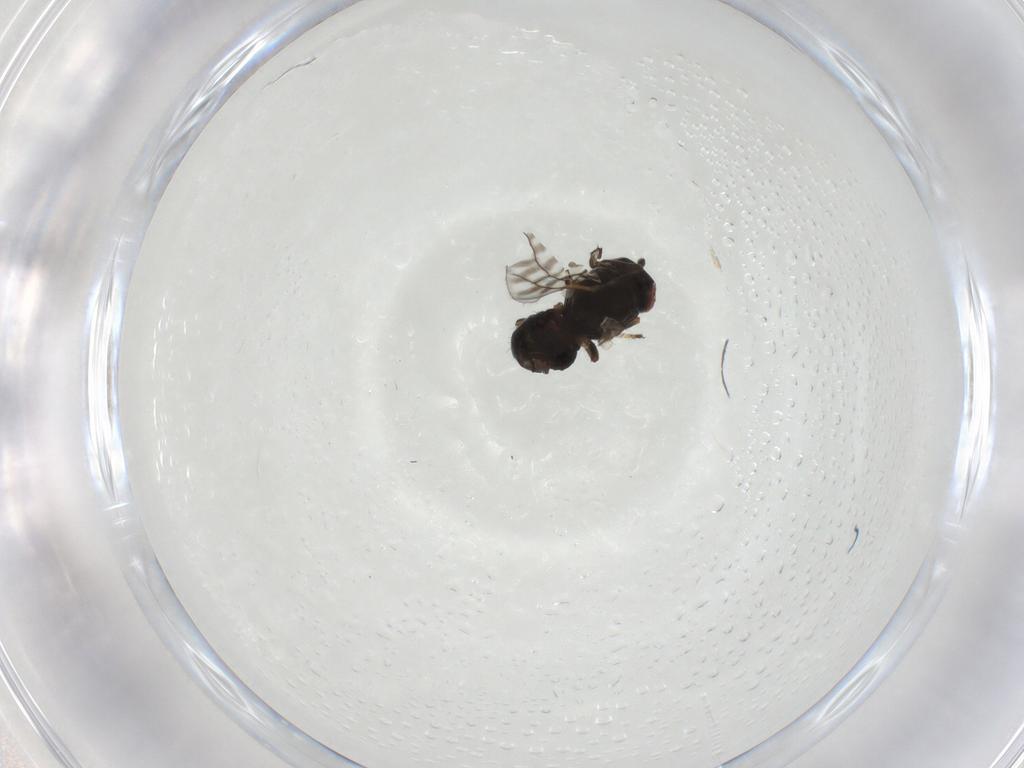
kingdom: Animalia
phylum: Arthropoda
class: Insecta
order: Diptera
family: Ephydridae
